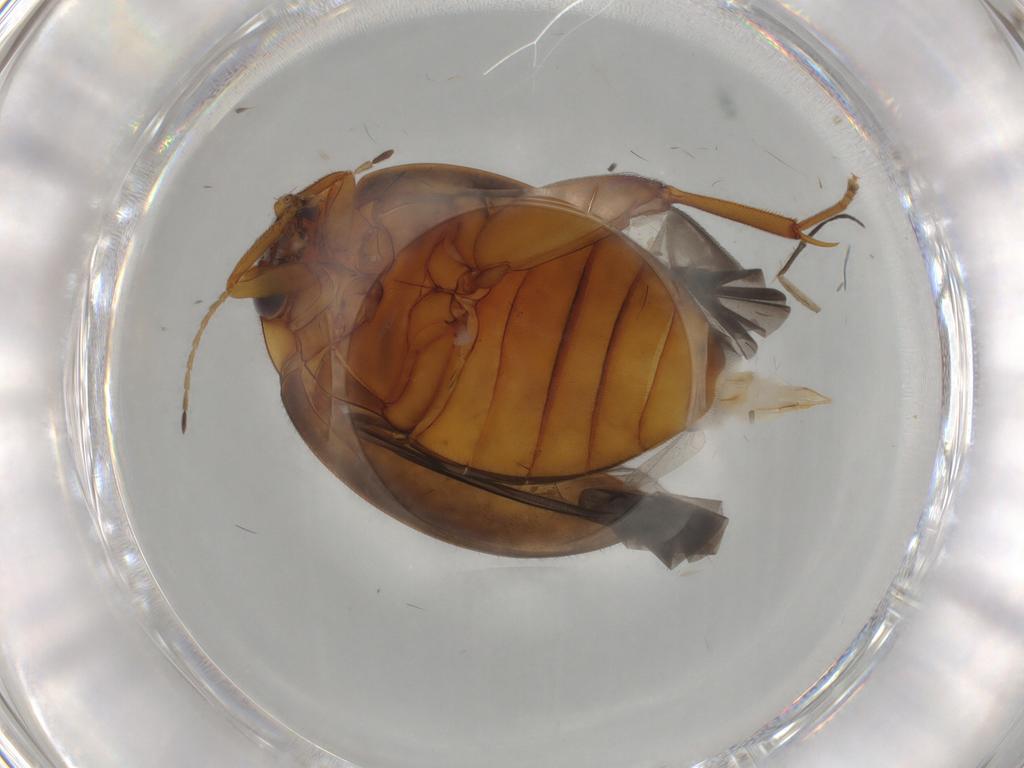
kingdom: Animalia
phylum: Arthropoda
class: Insecta
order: Coleoptera
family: Scirtidae
